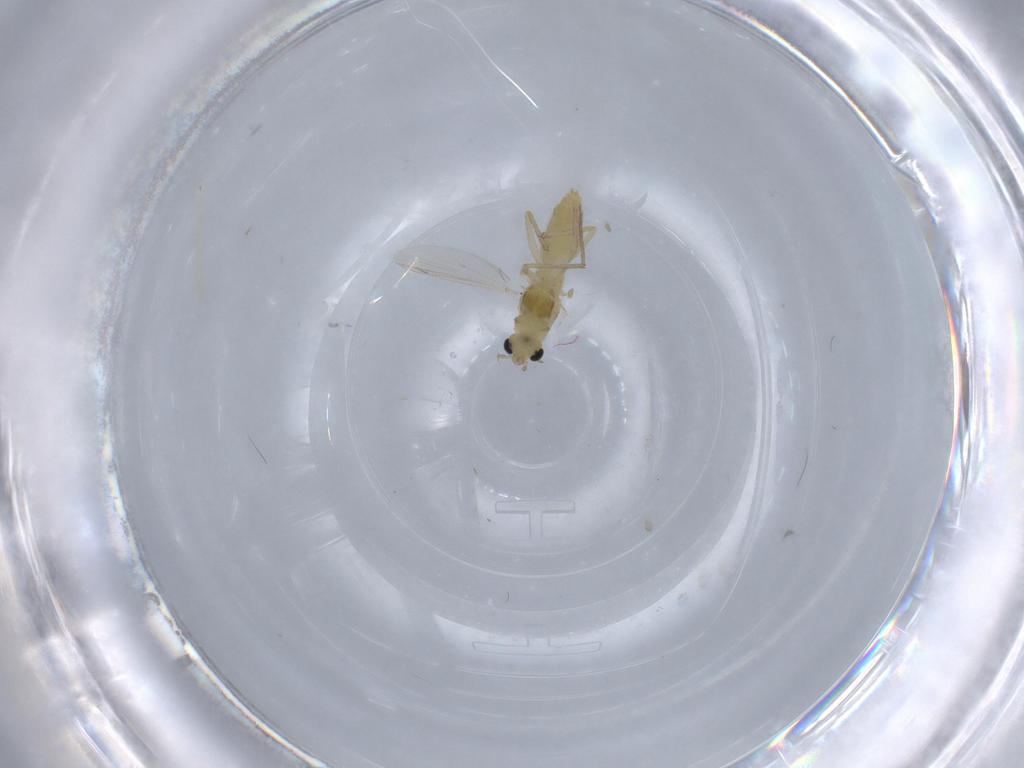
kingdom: Animalia
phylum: Arthropoda
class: Insecta
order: Diptera
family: Chironomidae
